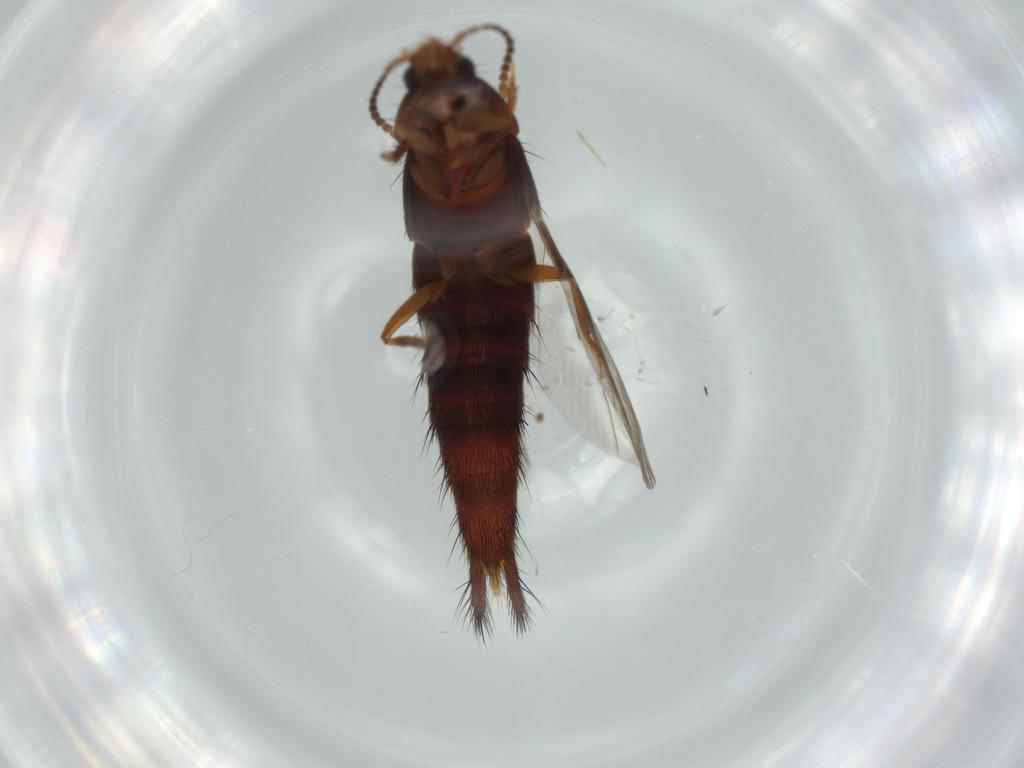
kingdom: Animalia
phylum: Arthropoda
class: Insecta
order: Coleoptera
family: Staphylinidae
